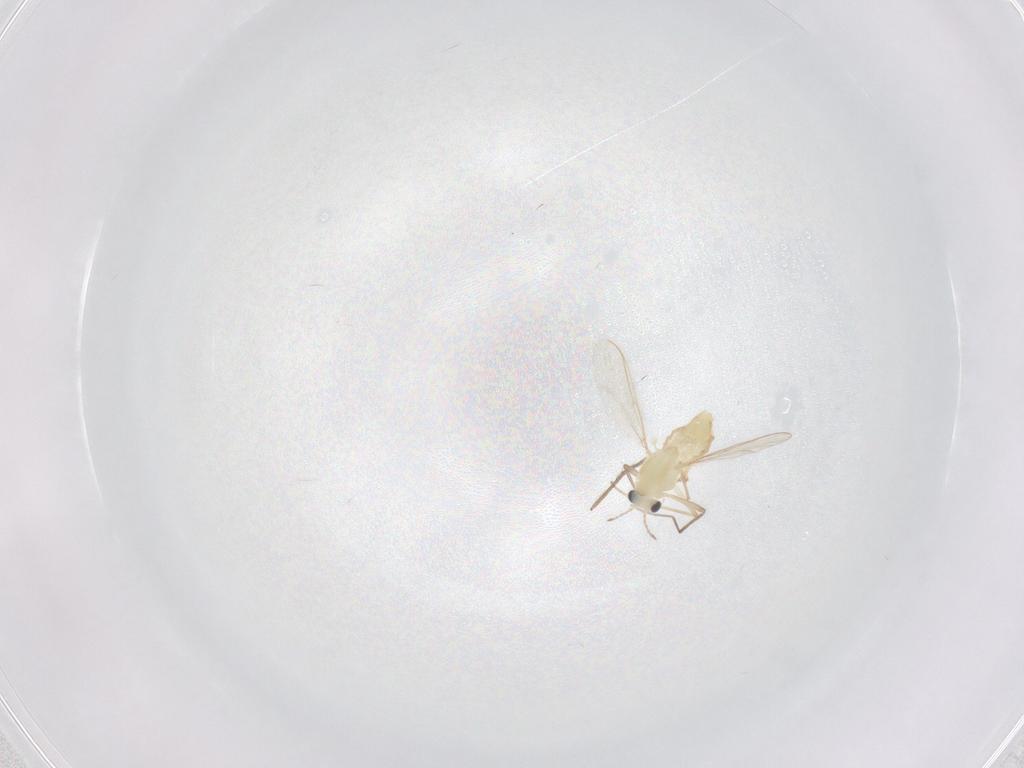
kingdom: Animalia
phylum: Arthropoda
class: Insecta
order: Diptera
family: Chironomidae
